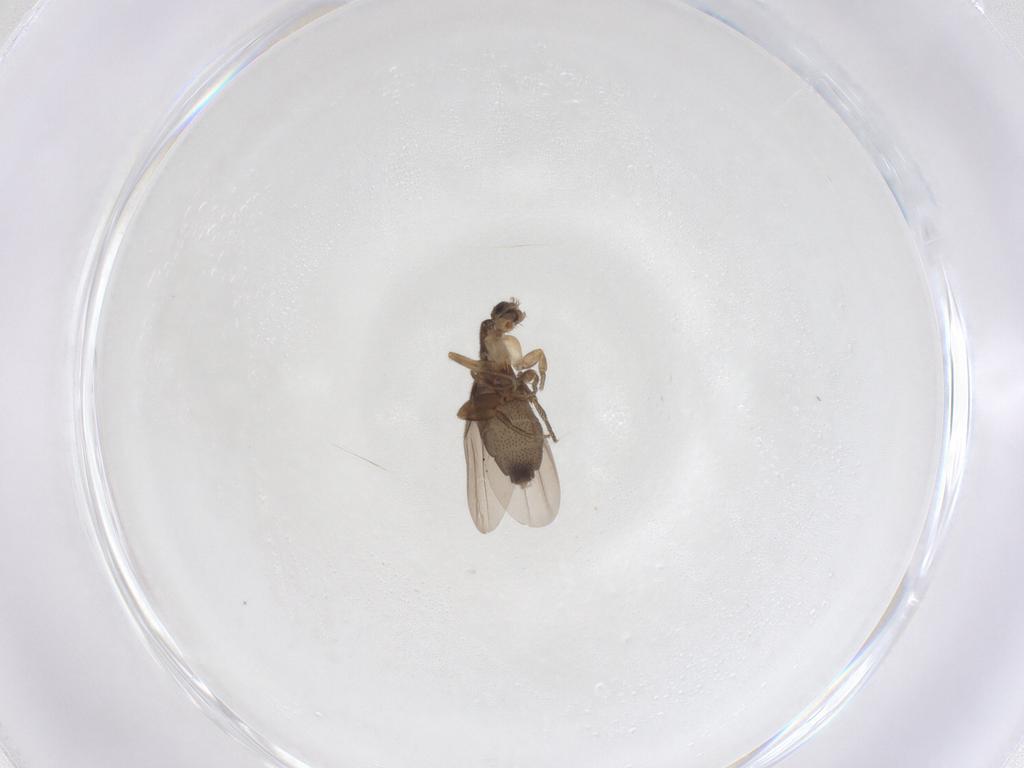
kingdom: Animalia
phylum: Arthropoda
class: Insecta
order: Diptera
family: Phoridae
